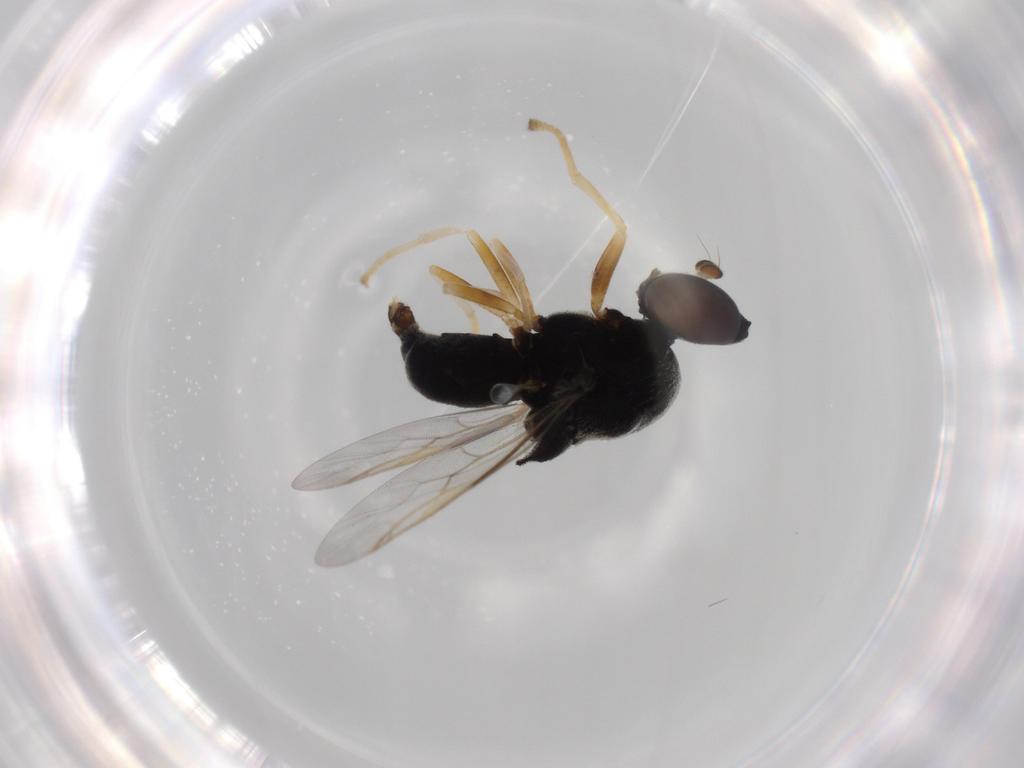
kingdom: Animalia
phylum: Arthropoda
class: Insecta
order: Diptera
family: Stratiomyidae
